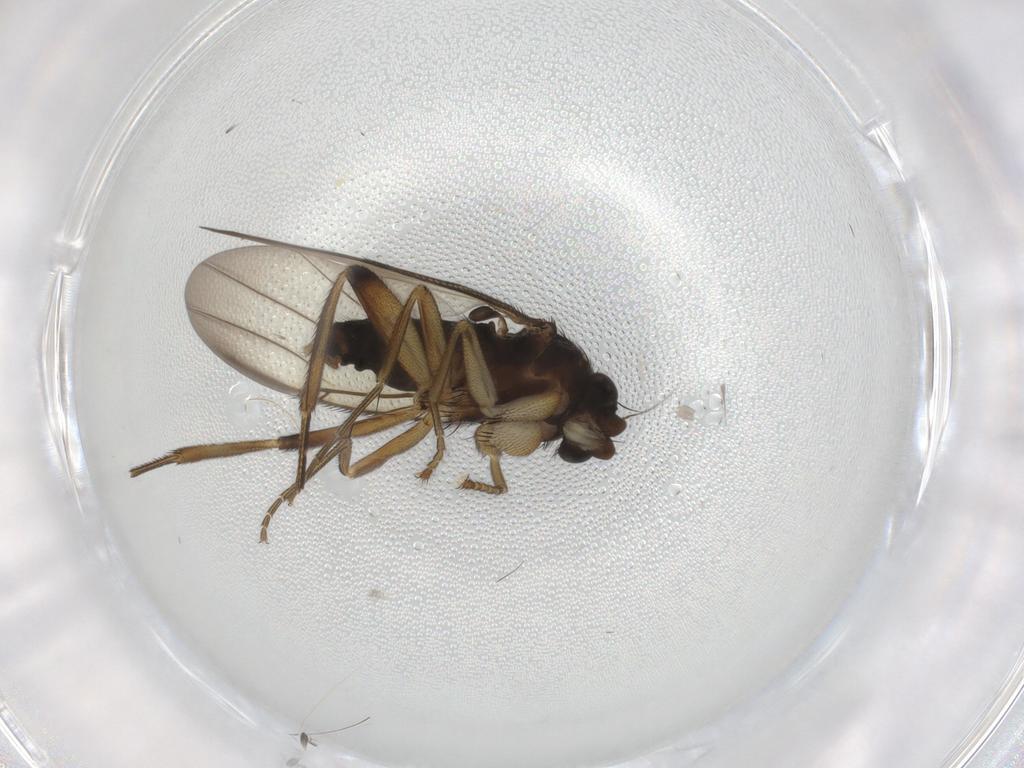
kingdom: Animalia
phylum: Arthropoda
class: Insecta
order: Diptera
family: Phoridae
